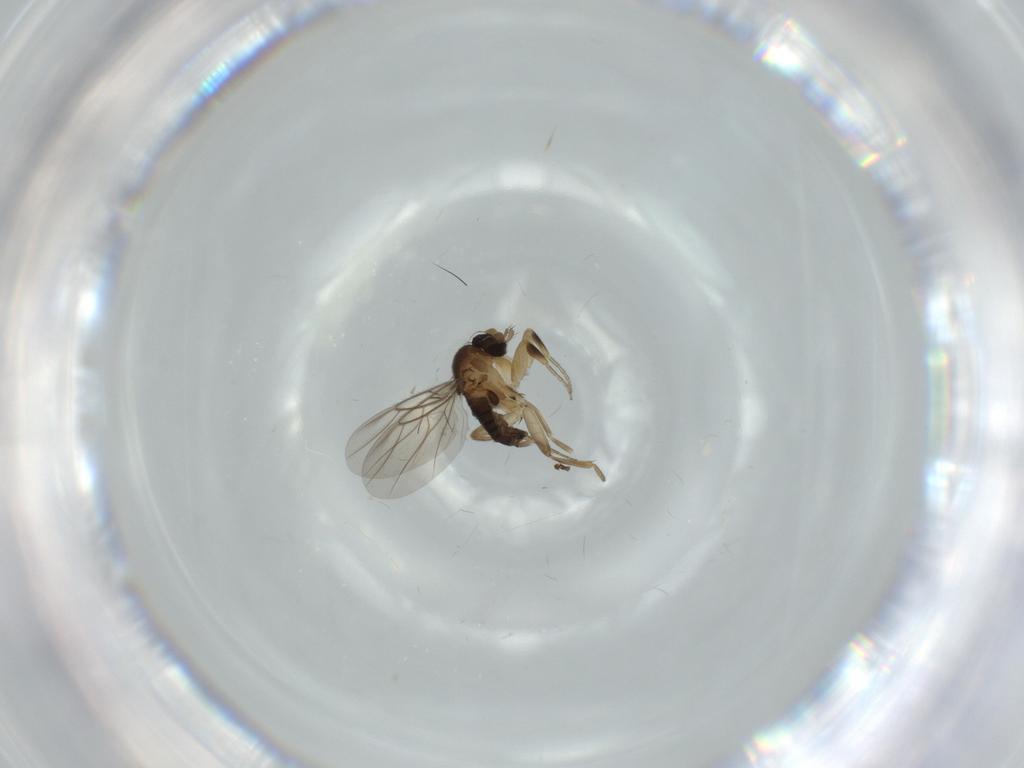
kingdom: Animalia
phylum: Arthropoda
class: Insecta
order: Diptera
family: Phoridae
